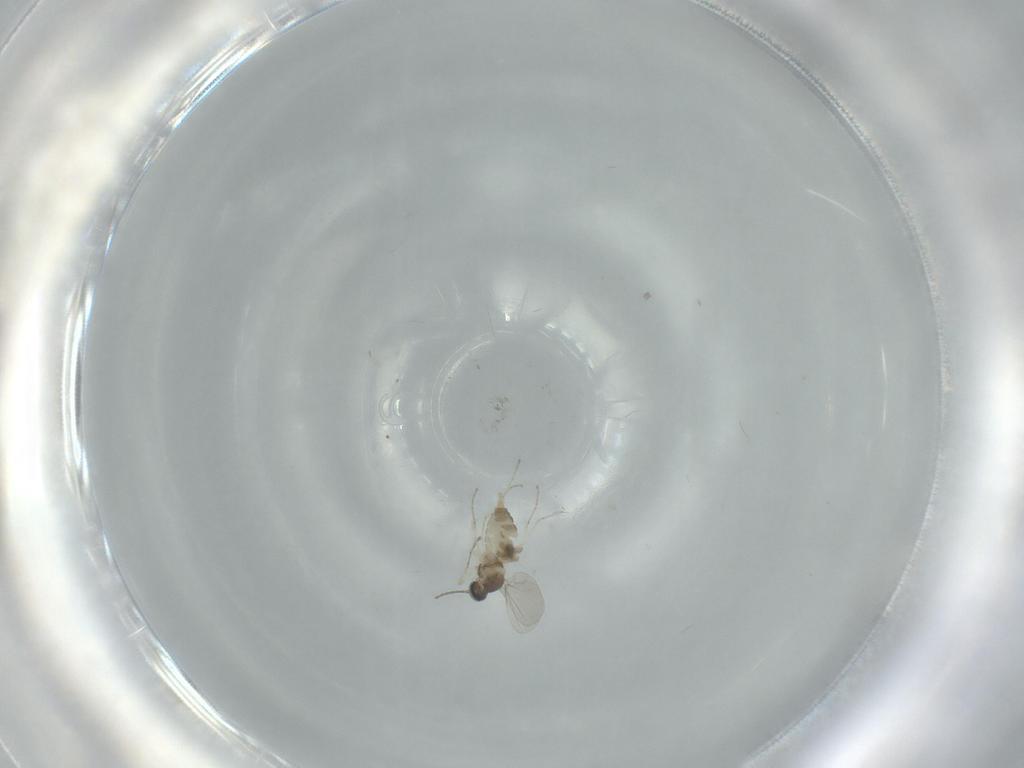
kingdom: Animalia
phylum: Arthropoda
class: Insecta
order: Diptera
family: Cecidomyiidae
